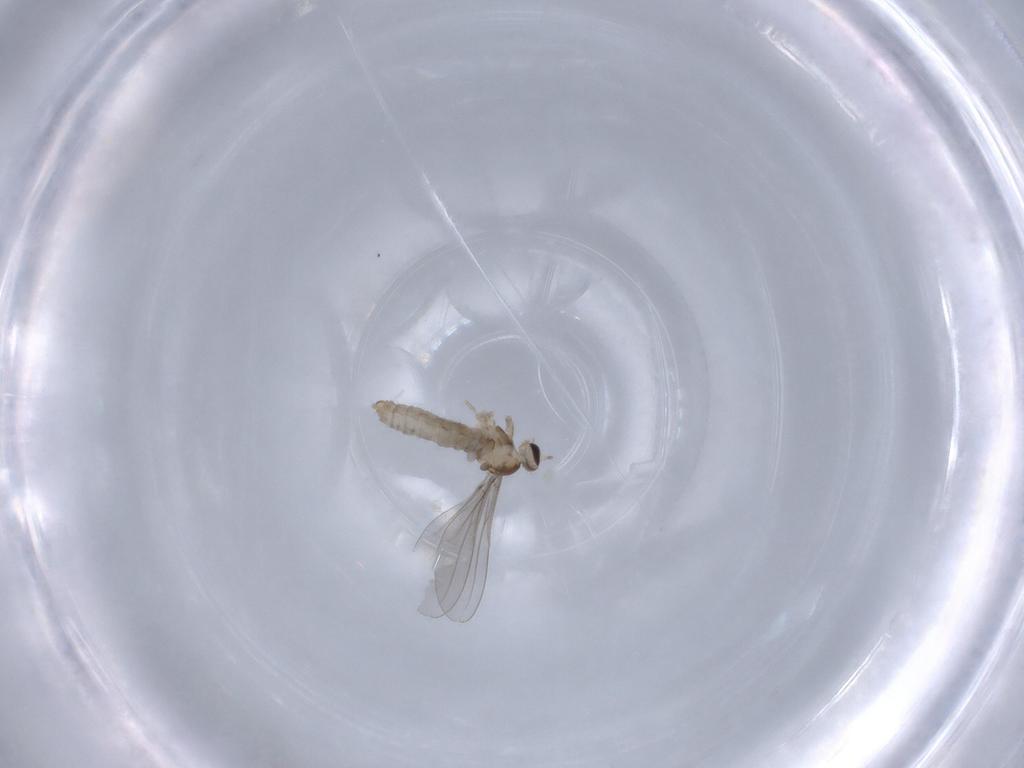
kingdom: Animalia
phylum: Arthropoda
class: Insecta
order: Diptera
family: Cecidomyiidae
